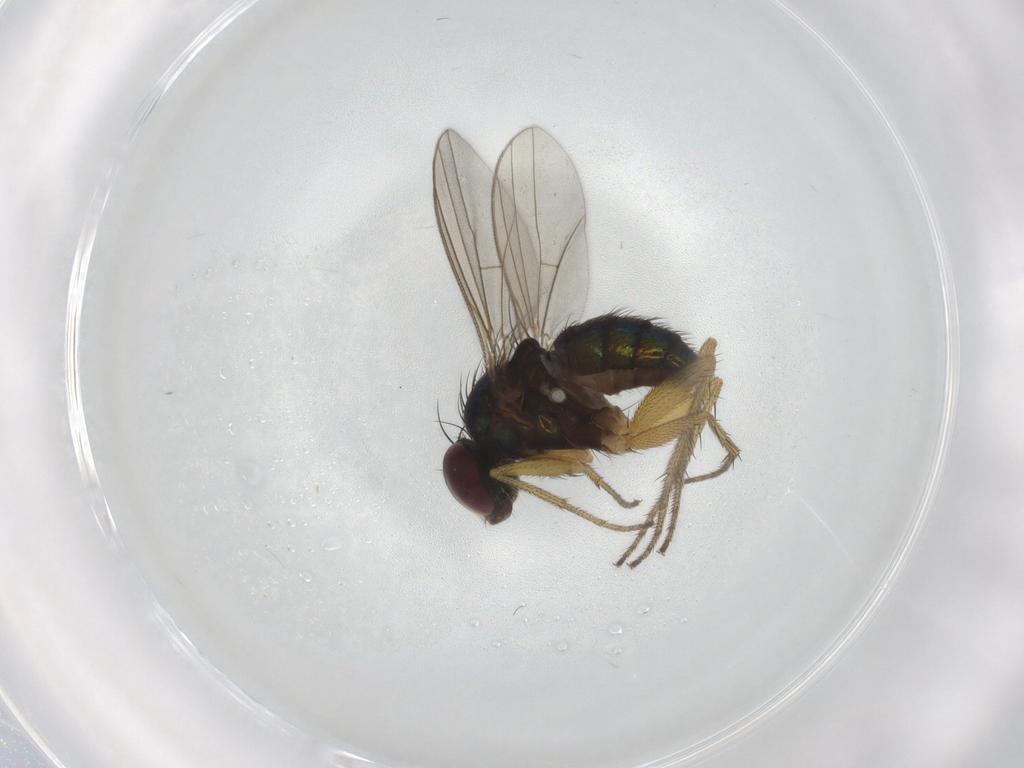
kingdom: Animalia
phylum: Arthropoda
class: Insecta
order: Diptera
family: Dolichopodidae
